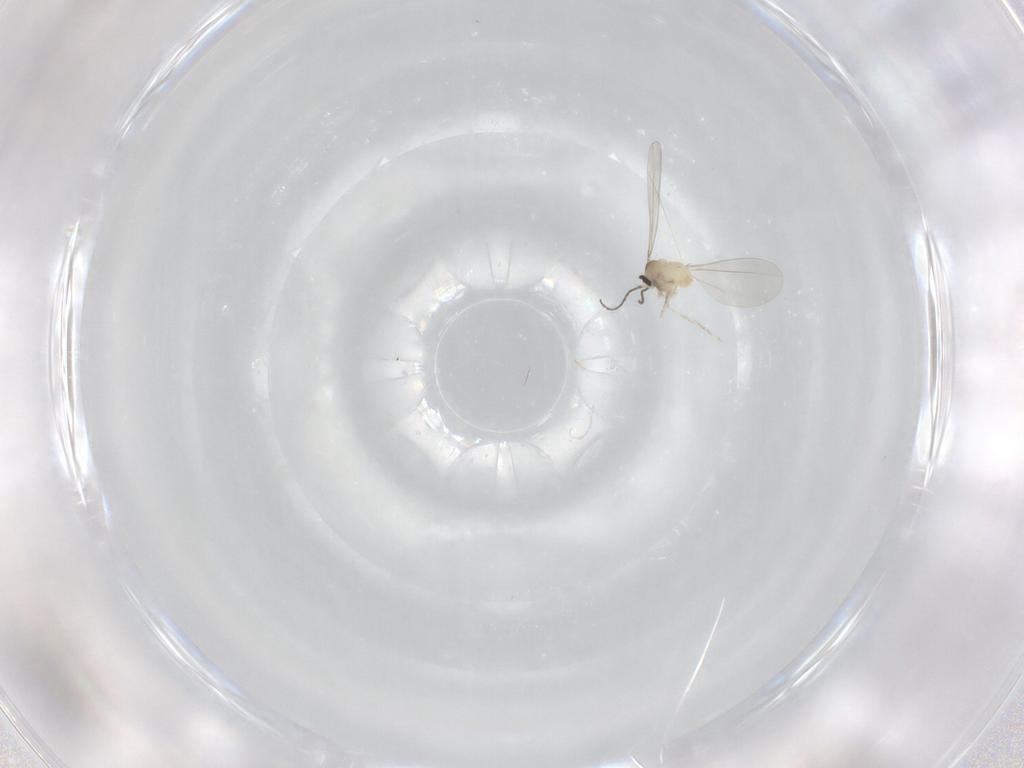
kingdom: Animalia
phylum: Arthropoda
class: Insecta
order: Diptera
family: Cecidomyiidae
